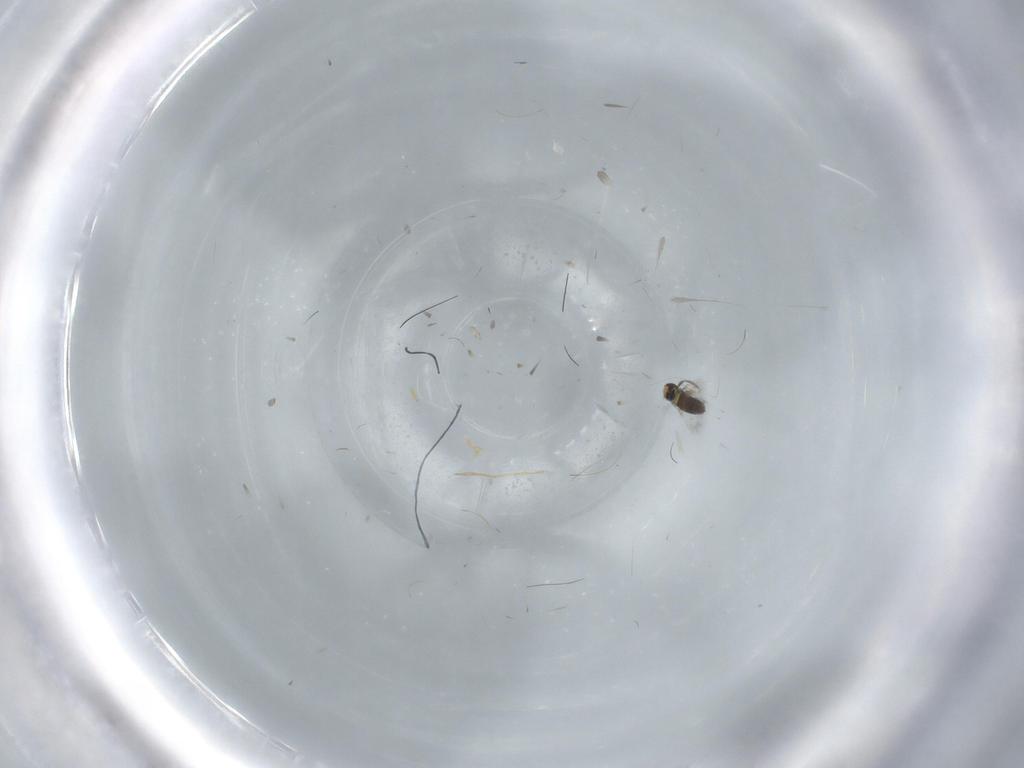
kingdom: Animalia
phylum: Arthropoda
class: Insecta
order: Hymenoptera
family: Signiphoridae
